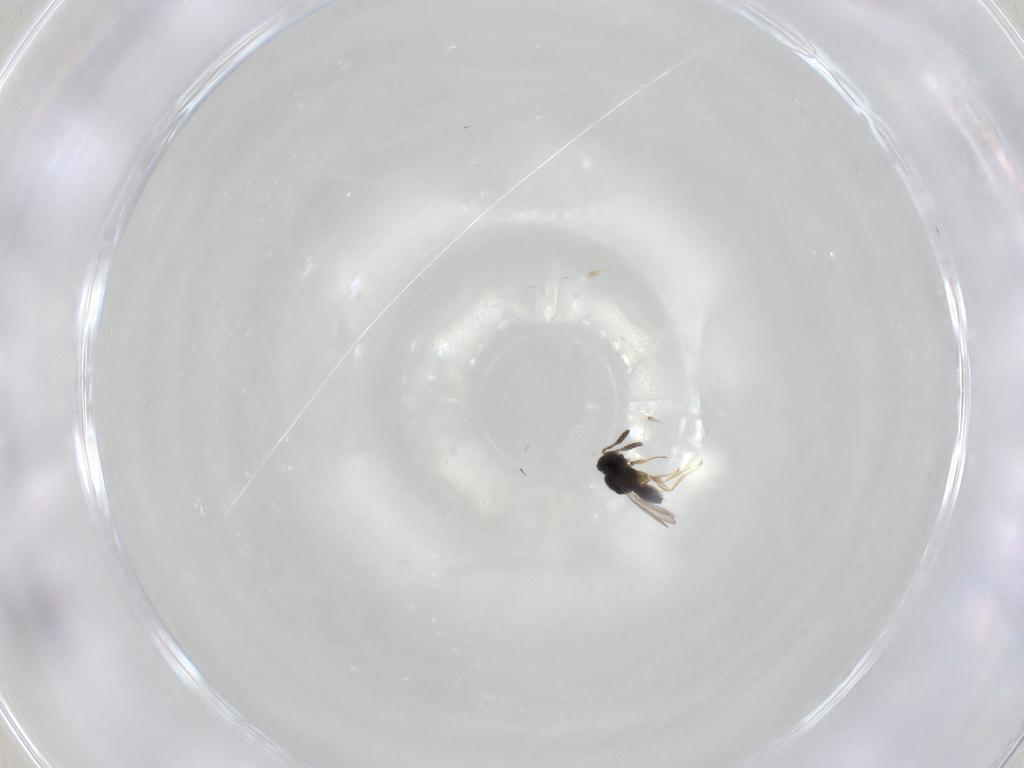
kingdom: Animalia
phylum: Arthropoda
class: Insecta
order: Hymenoptera
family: Scelionidae
